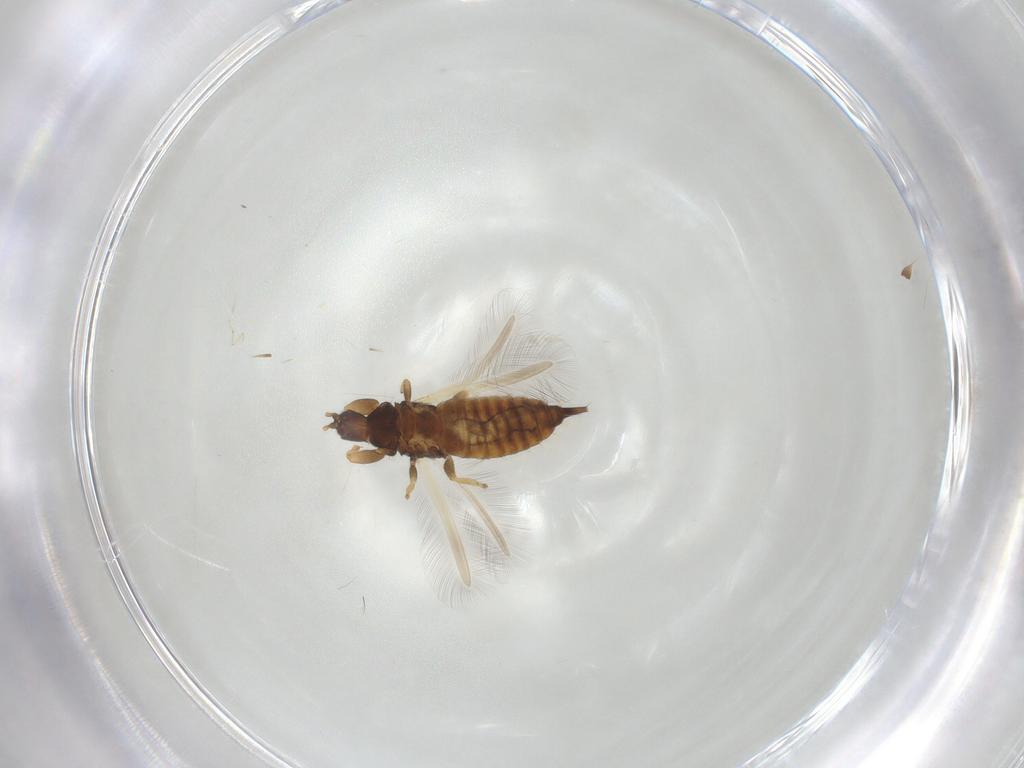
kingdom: Animalia
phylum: Arthropoda
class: Insecta
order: Thysanoptera
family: Phlaeothripidae
